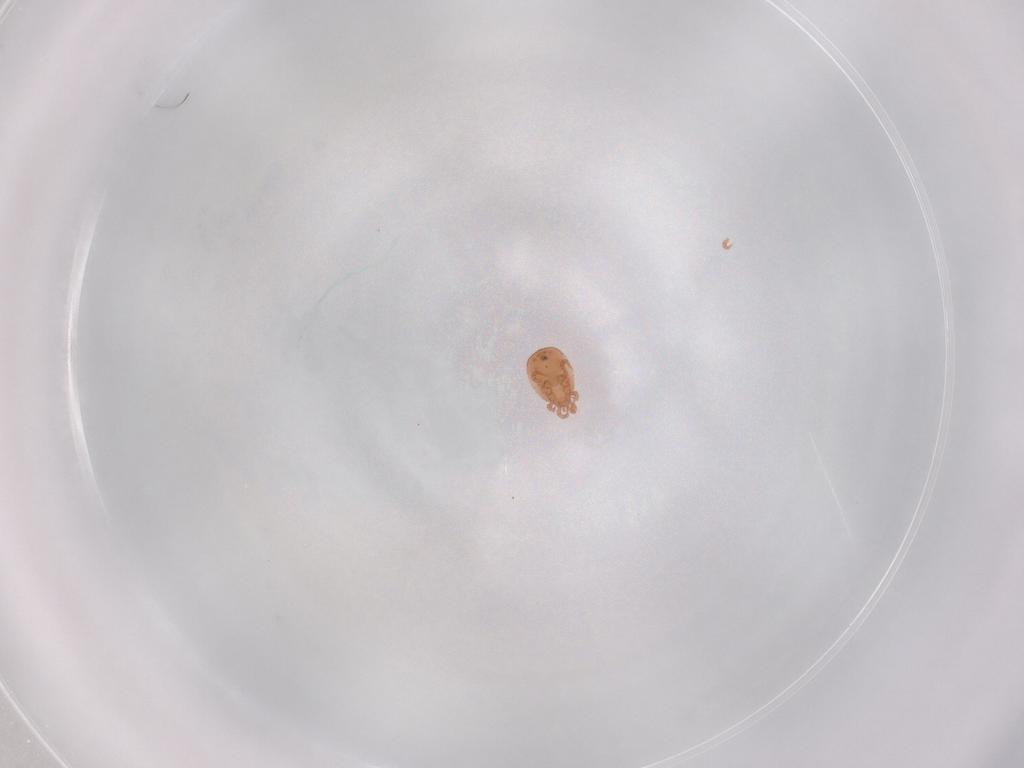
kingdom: Animalia
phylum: Arthropoda
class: Arachnida
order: Mesostigmata
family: Zerconidae
